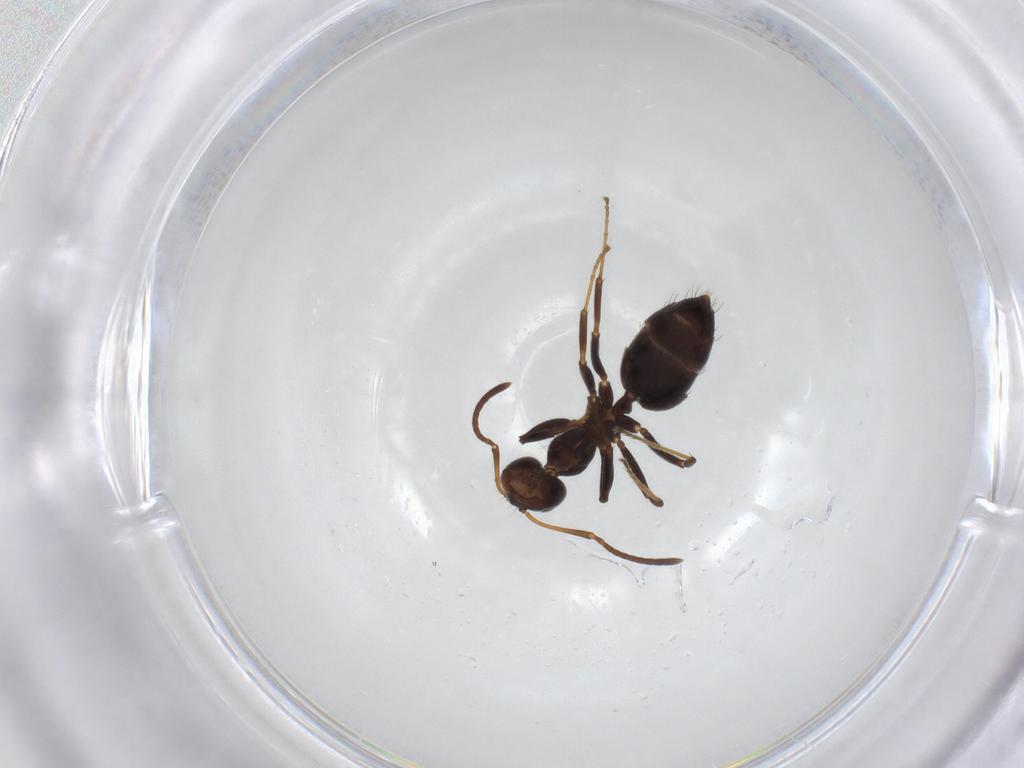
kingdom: Animalia
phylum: Arthropoda
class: Insecta
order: Hymenoptera
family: Formicidae
